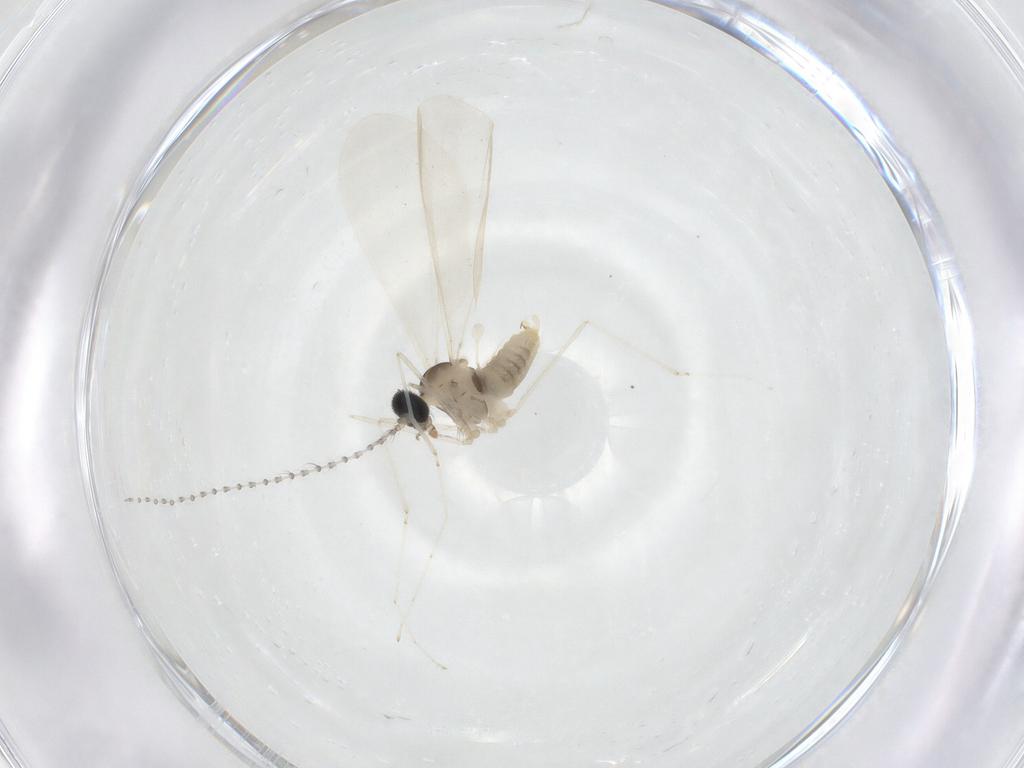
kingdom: Animalia
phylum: Arthropoda
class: Insecta
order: Diptera
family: Cecidomyiidae
